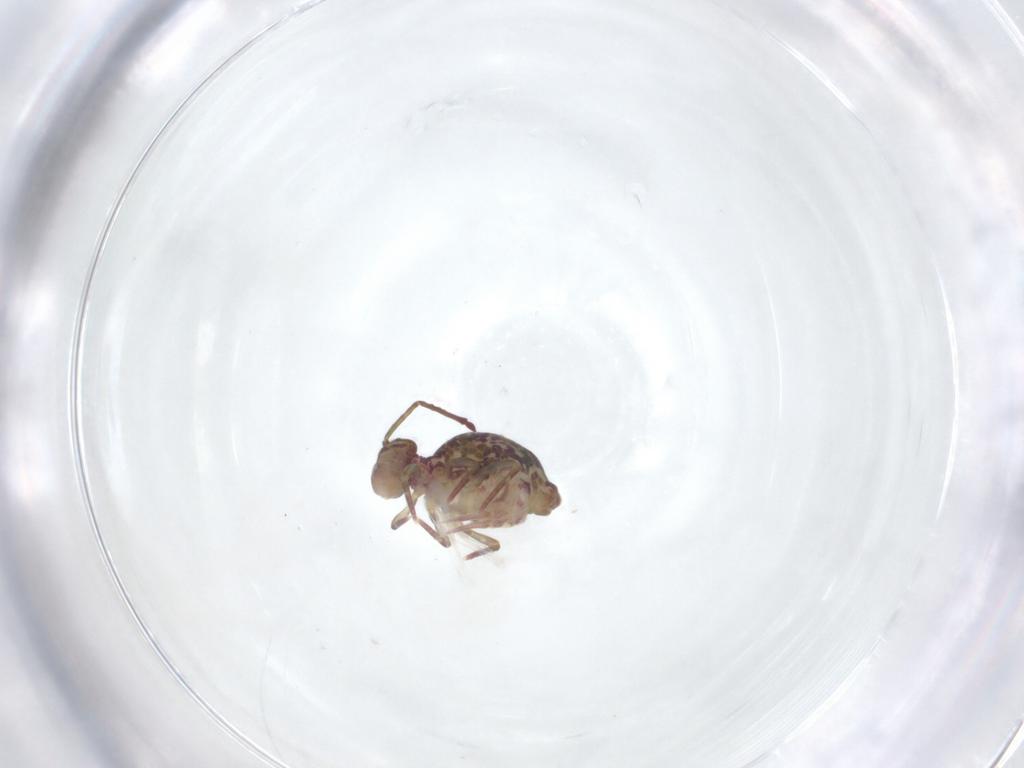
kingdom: Animalia
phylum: Arthropoda
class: Collembola
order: Symphypleona
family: Dicyrtomidae
